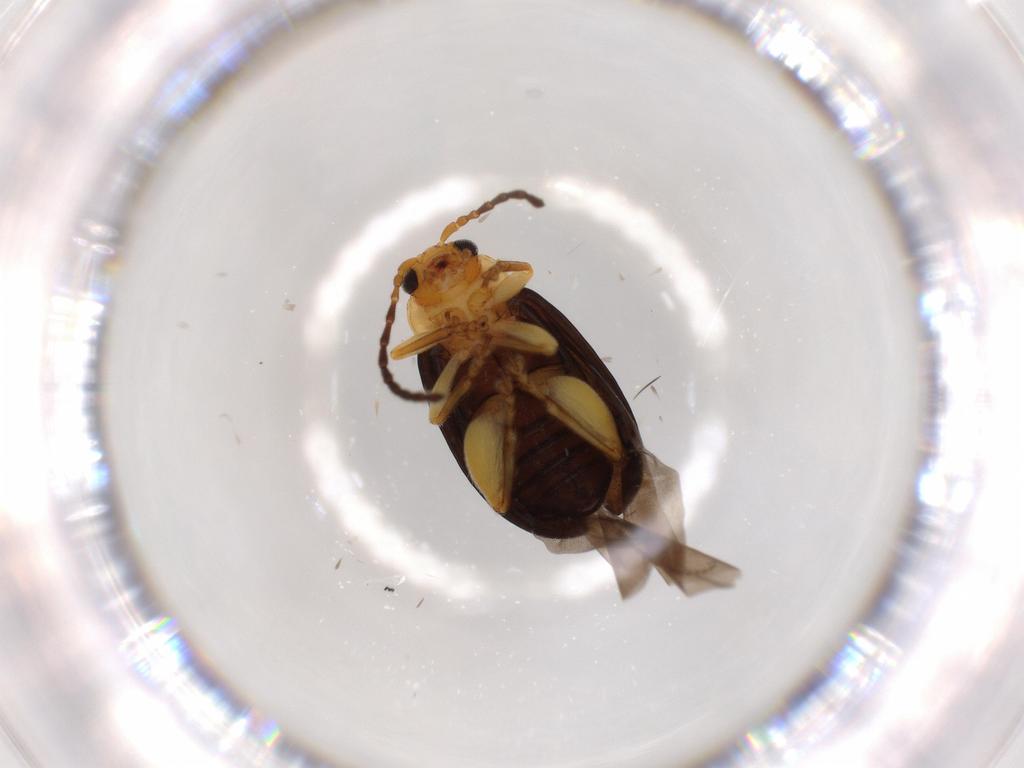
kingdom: Animalia
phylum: Arthropoda
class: Insecta
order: Coleoptera
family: Chrysomelidae
